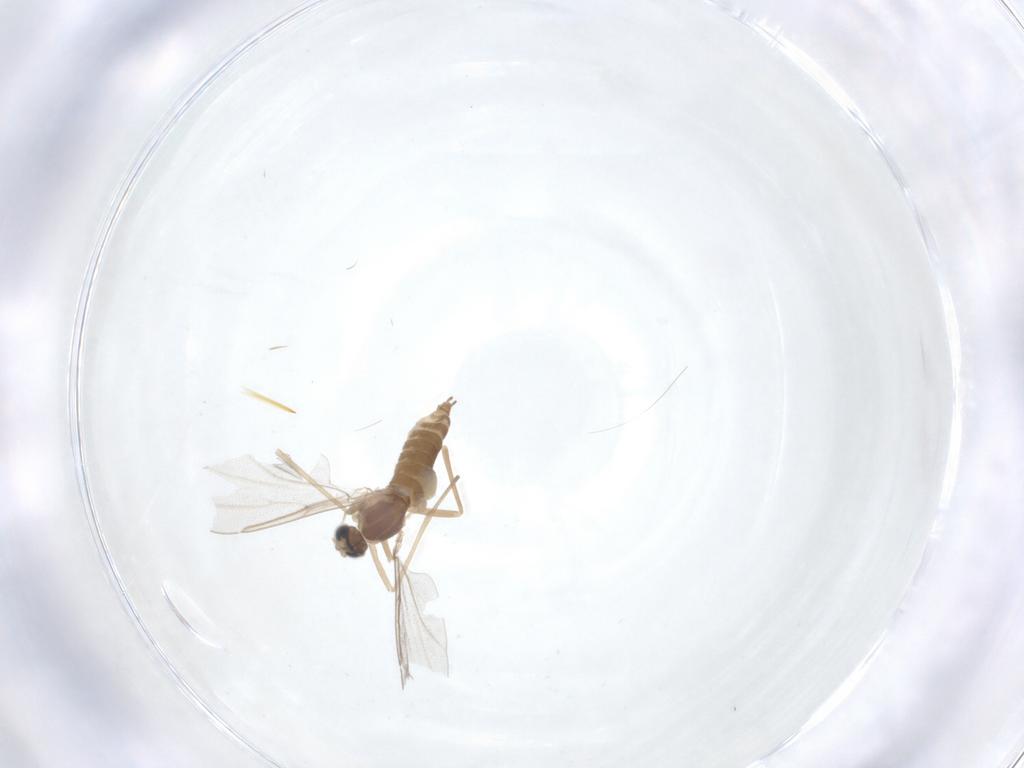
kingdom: Animalia
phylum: Arthropoda
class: Insecta
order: Diptera
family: Cecidomyiidae
